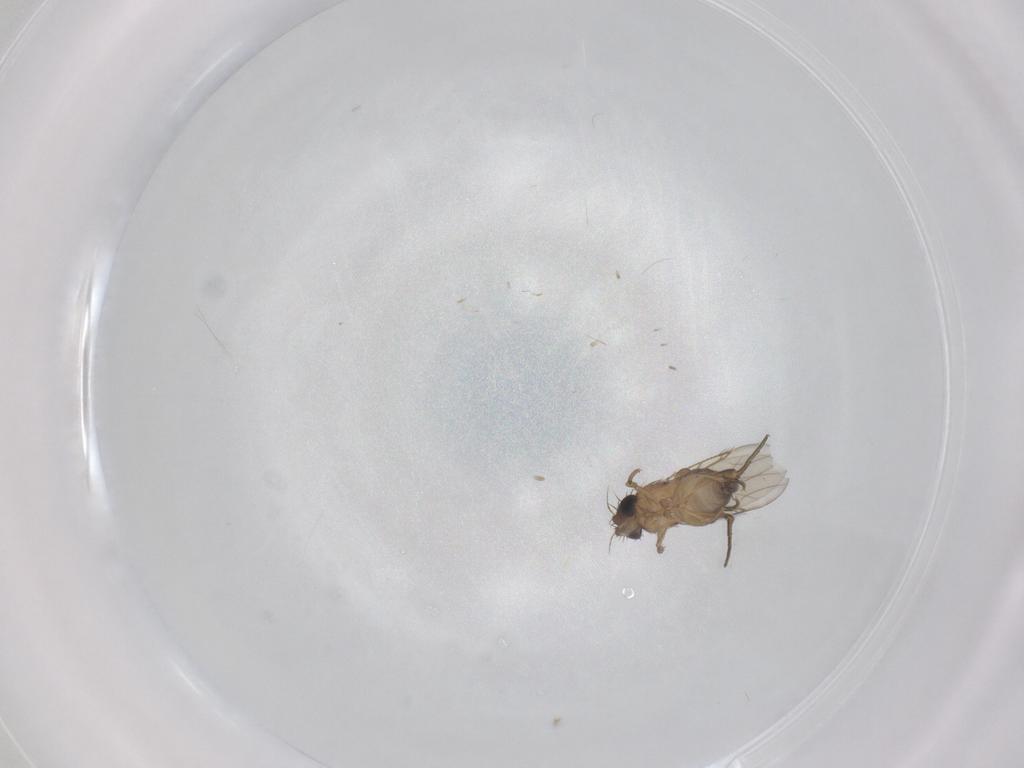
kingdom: Animalia
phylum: Arthropoda
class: Insecta
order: Diptera
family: Phoridae
